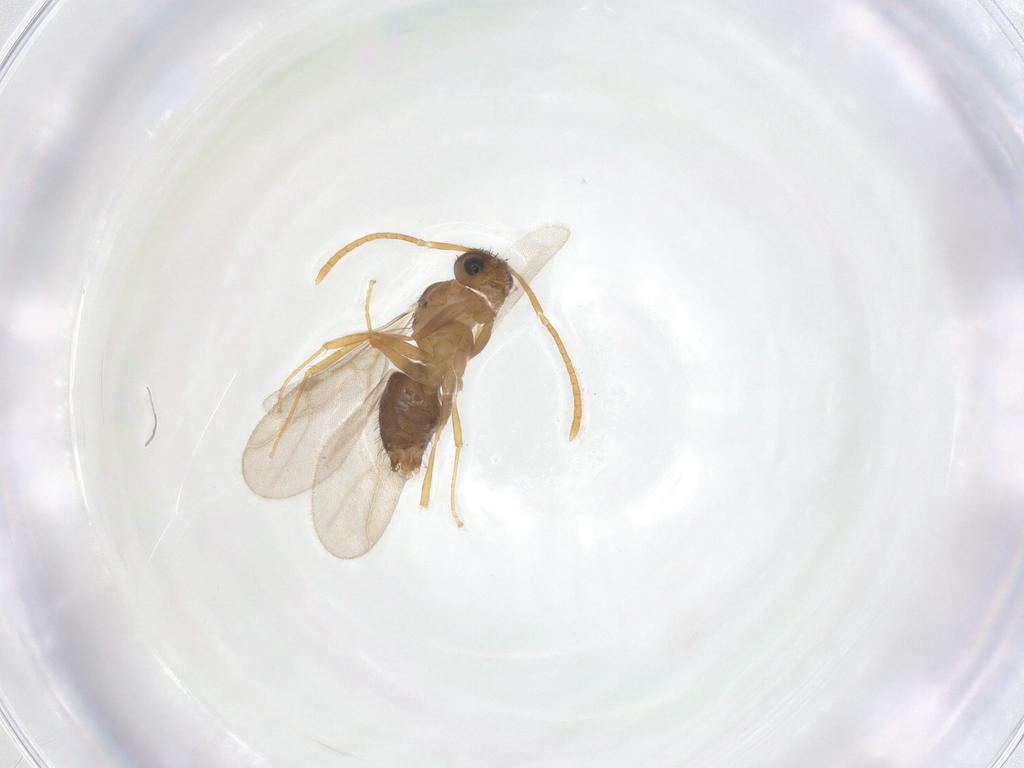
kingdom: Animalia
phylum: Arthropoda
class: Insecta
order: Hymenoptera
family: Formicidae
